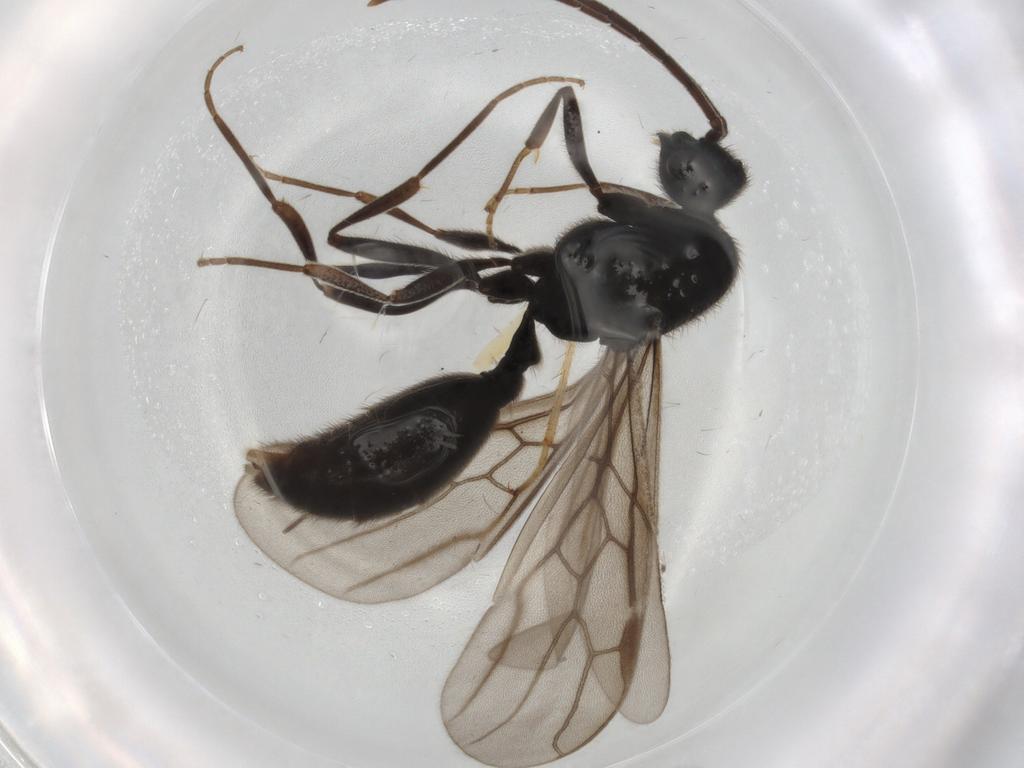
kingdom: Animalia
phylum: Arthropoda
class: Insecta
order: Hymenoptera
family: Formicidae
